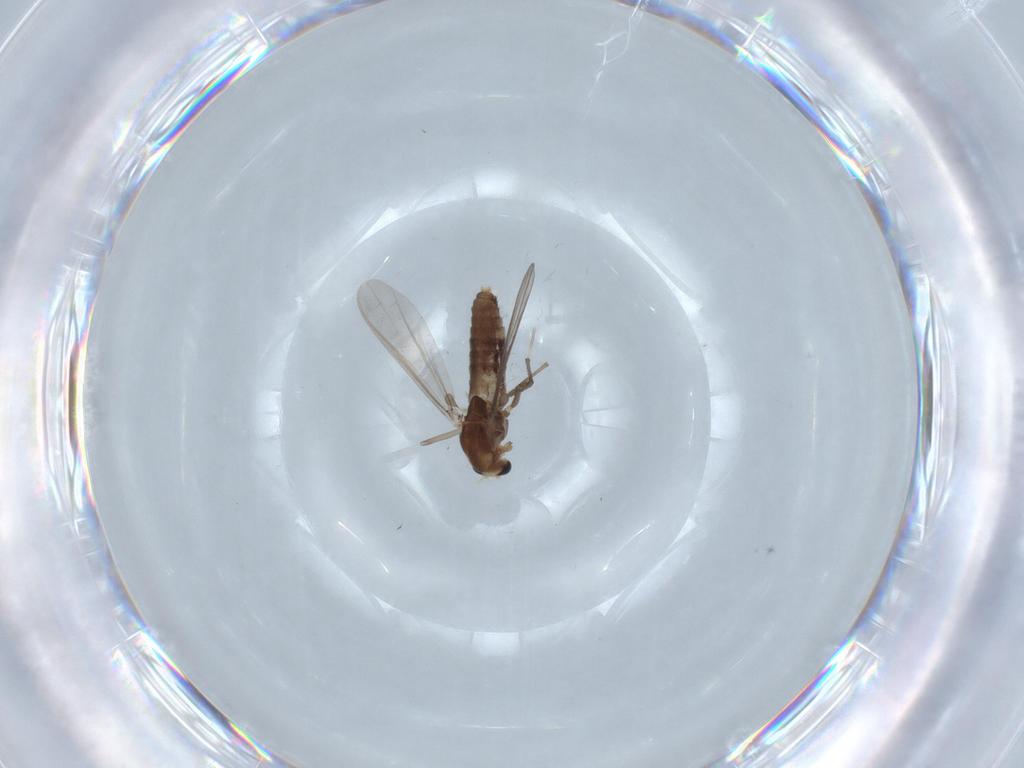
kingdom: Animalia
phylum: Arthropoda
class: Insecta
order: Diptera
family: Chironomidae
